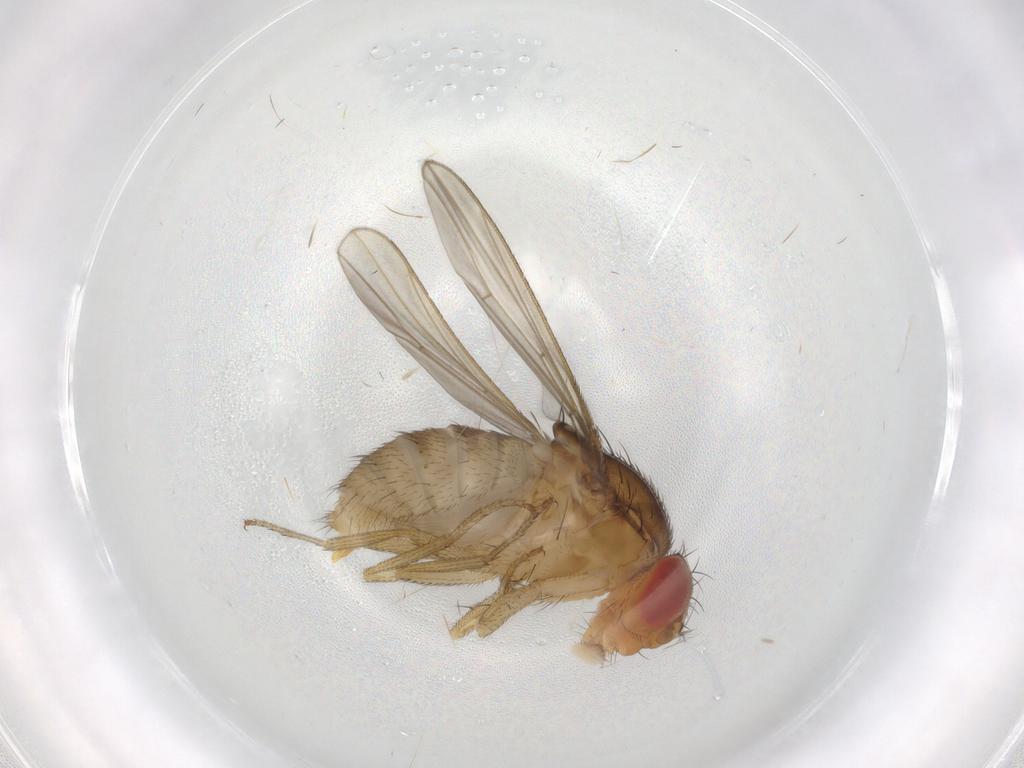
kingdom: Animalia
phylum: Arthropoda
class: Insecta
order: Diptera
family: Drosophilidae
